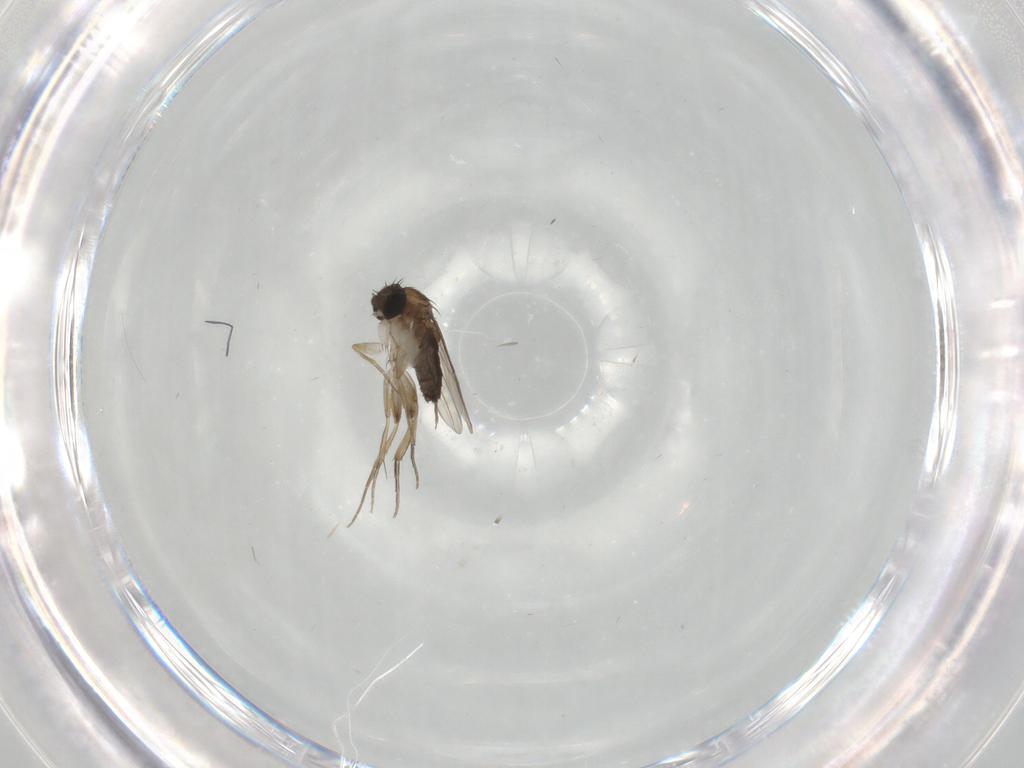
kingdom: Animalia
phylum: Arthropoda
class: Insecta
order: Diptera
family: Phoridae
